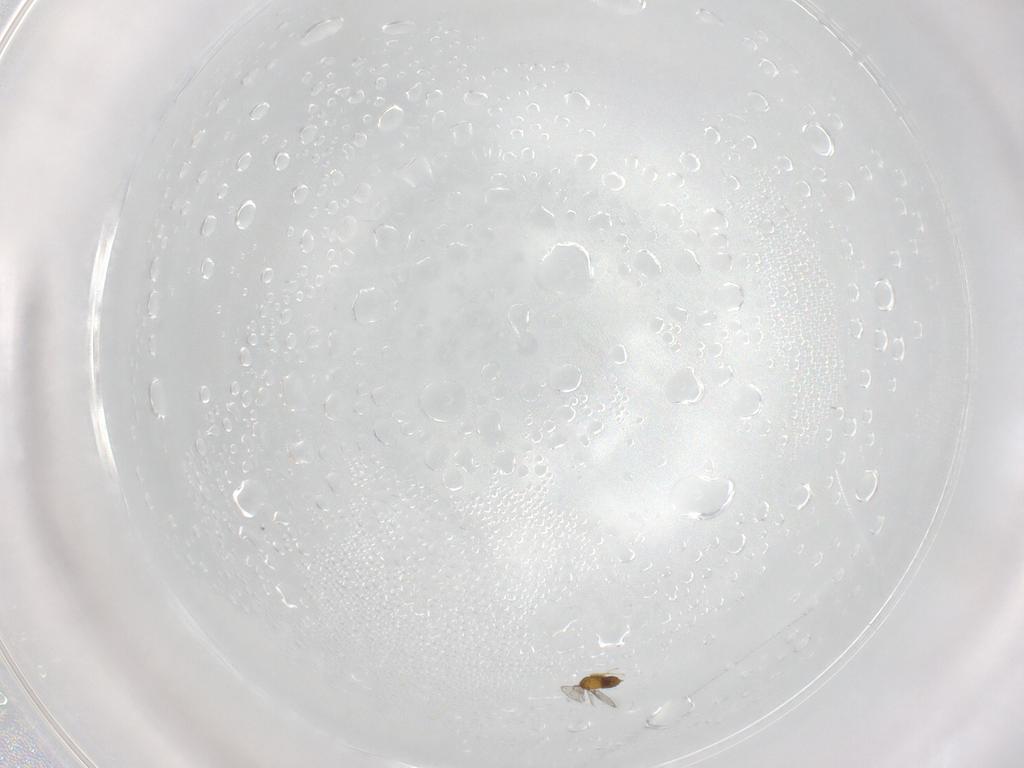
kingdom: Animalia
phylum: Arthropoda
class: Insecta
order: Hymenoptera
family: Trichogrammatidae
